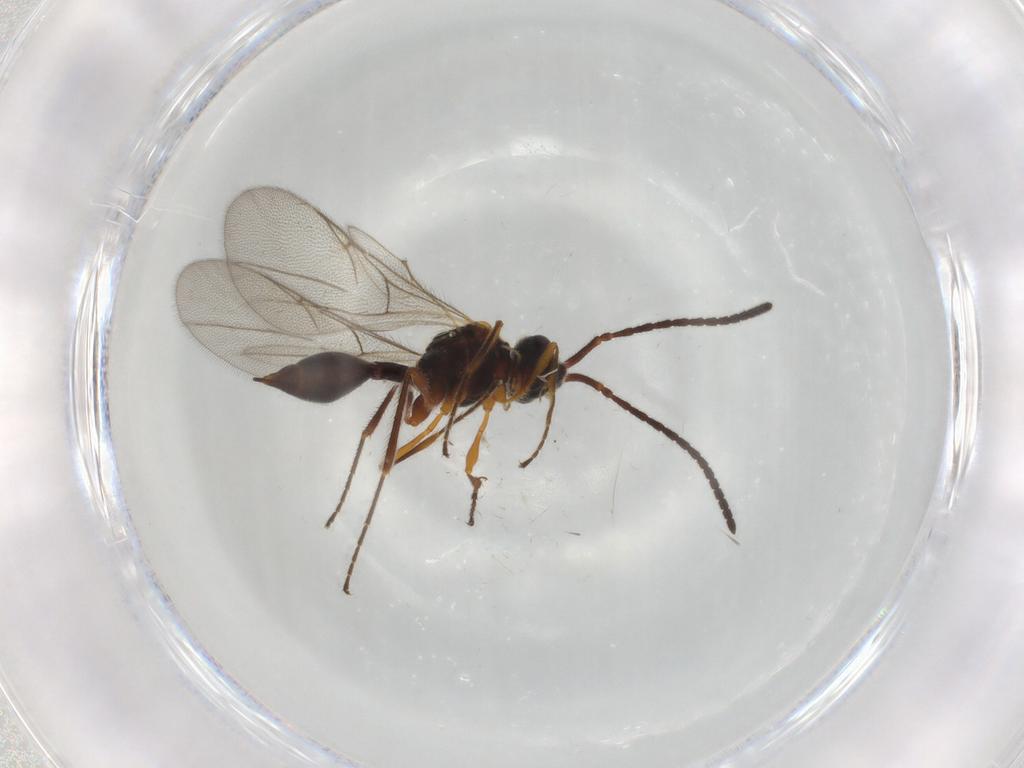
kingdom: Animalia
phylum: Arthropoda
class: Insecta
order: Hymenoptera
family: Diapriidae
